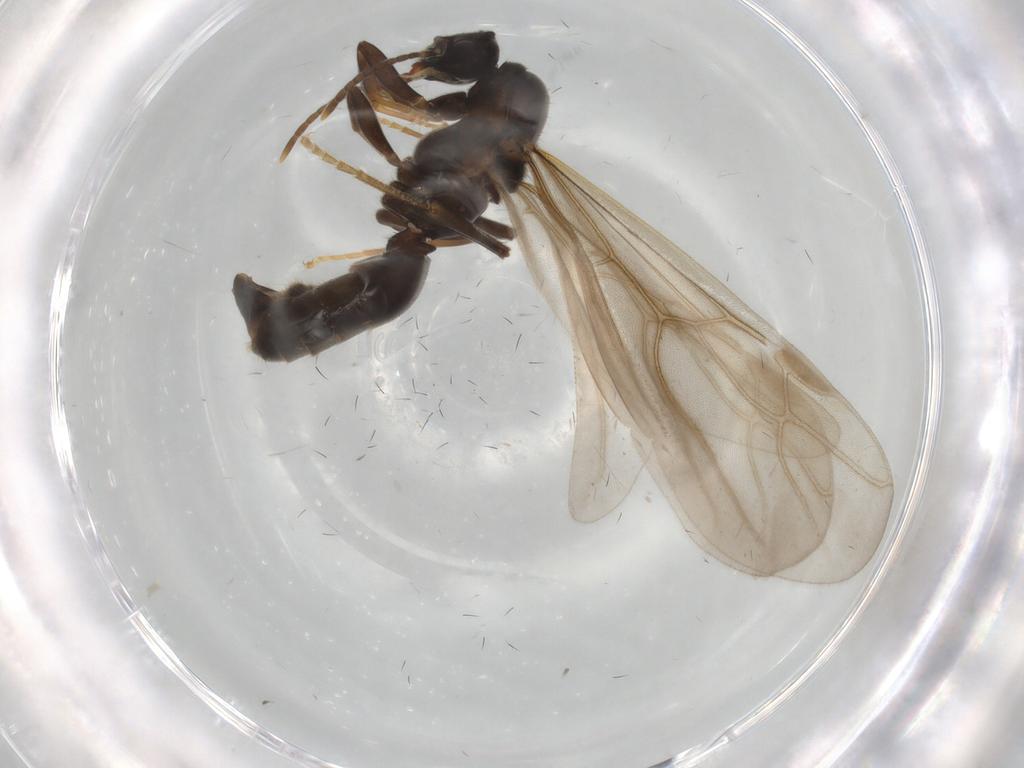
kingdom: Animalia
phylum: Arthropoda
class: Insecta
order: Hymenoptera
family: Formicidae
